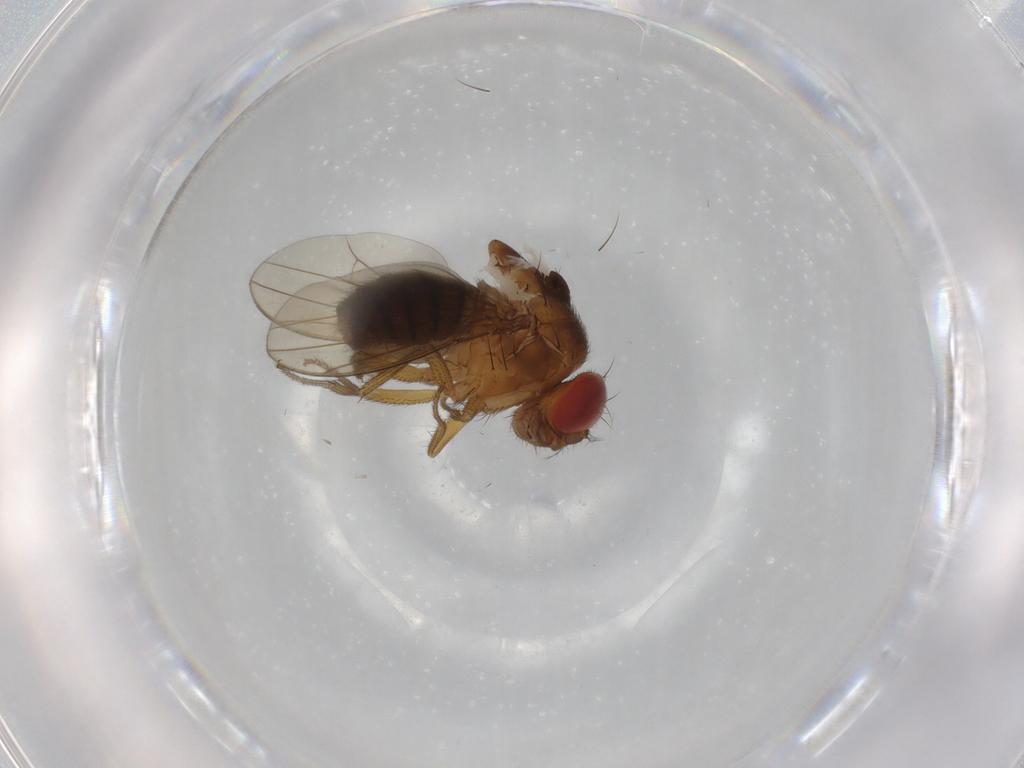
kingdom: Animalia
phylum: Arthropoda
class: Insecta
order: Diptera
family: Drosophilidae
